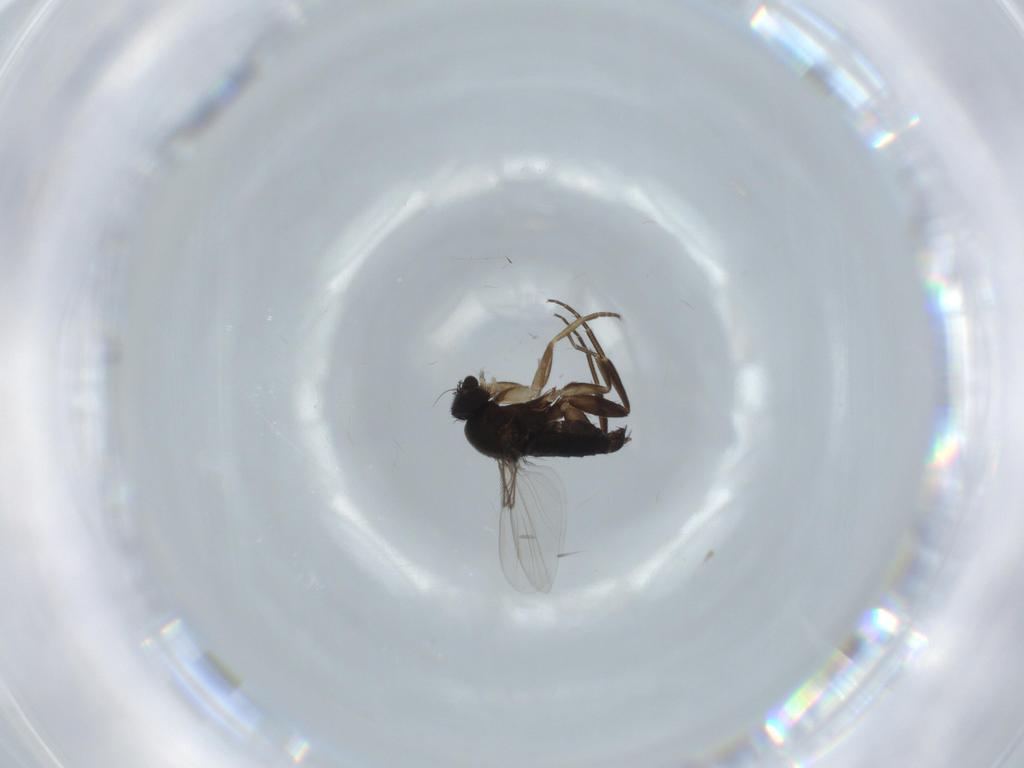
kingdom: Animalia
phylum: Arthropoda
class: Insecta
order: Diptera
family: Phoridae
